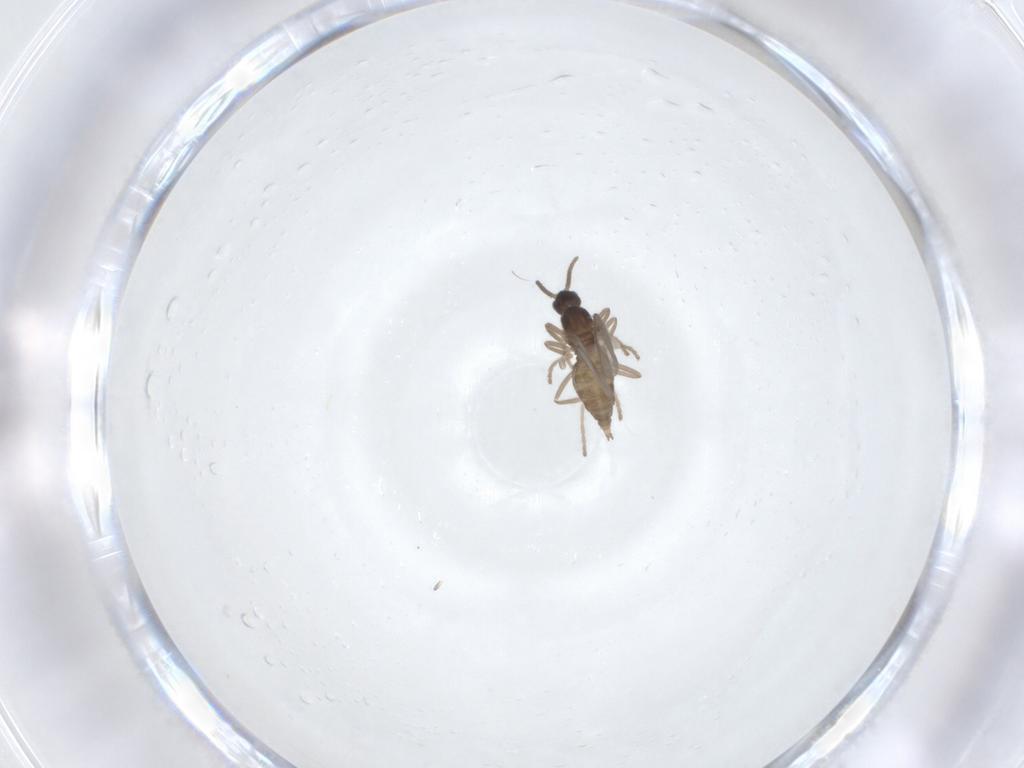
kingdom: Animalia
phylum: Arthropoda
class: Insecta
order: Diptera
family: Cecidomyiidae
